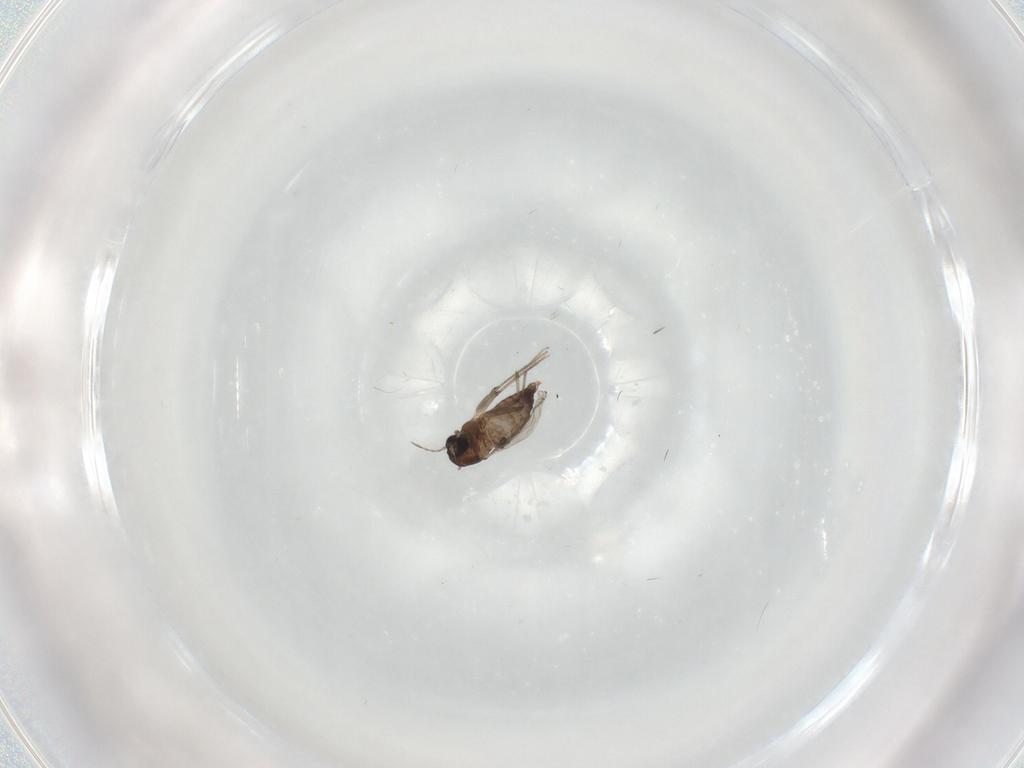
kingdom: Animalia
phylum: Arthropoda
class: Insecta
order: Diptera
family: Chironomidae
